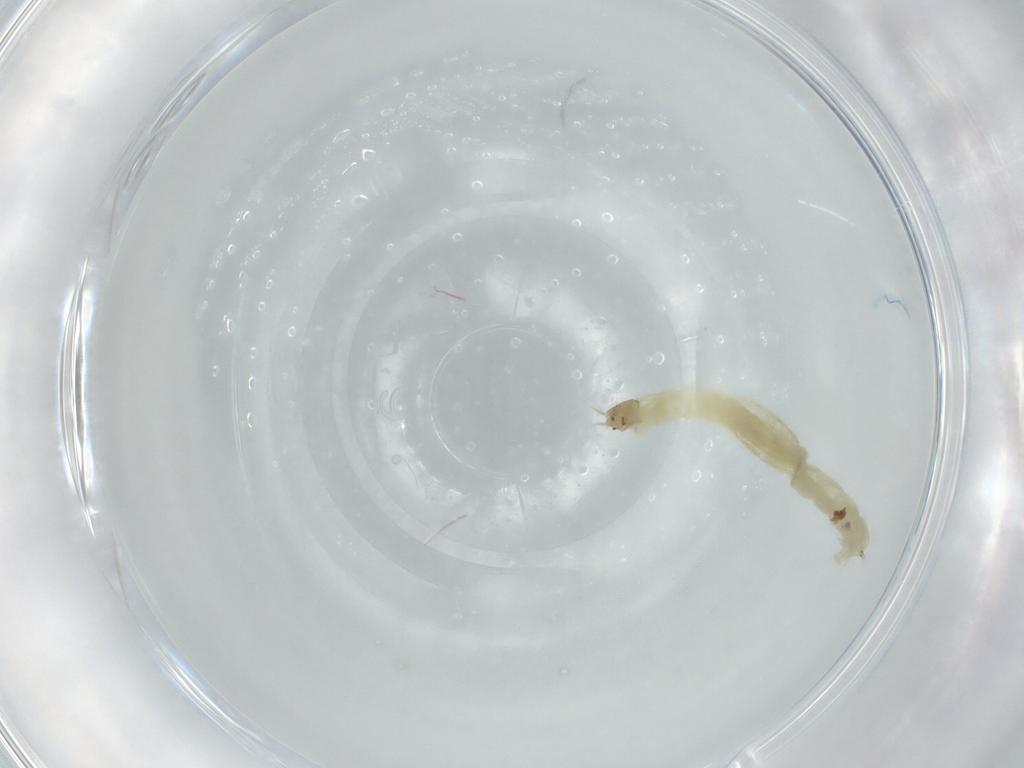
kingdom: Animalia
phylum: Arthropoda
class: Insecta
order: Diptera
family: Chironomidae
